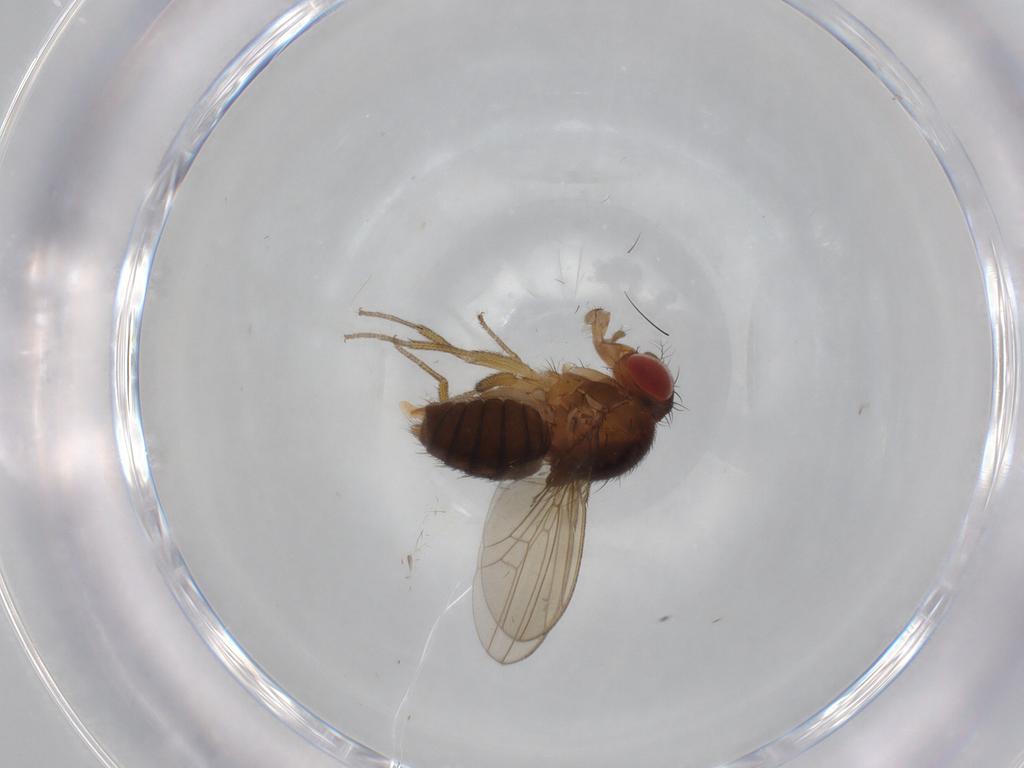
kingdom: Animalia
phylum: Arthropoda
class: Insecta
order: Diptera
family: Drosophilidae
